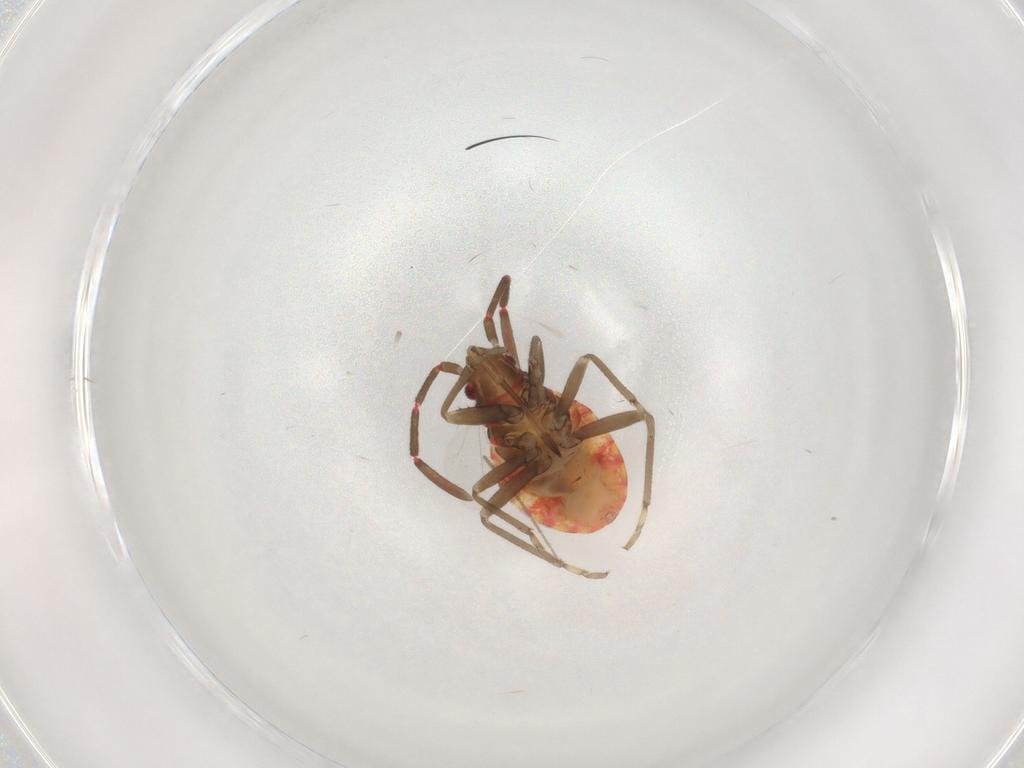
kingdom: Animalia
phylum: Arthropoda
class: Insecta
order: Hemiptera
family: Rhyparochromidae
